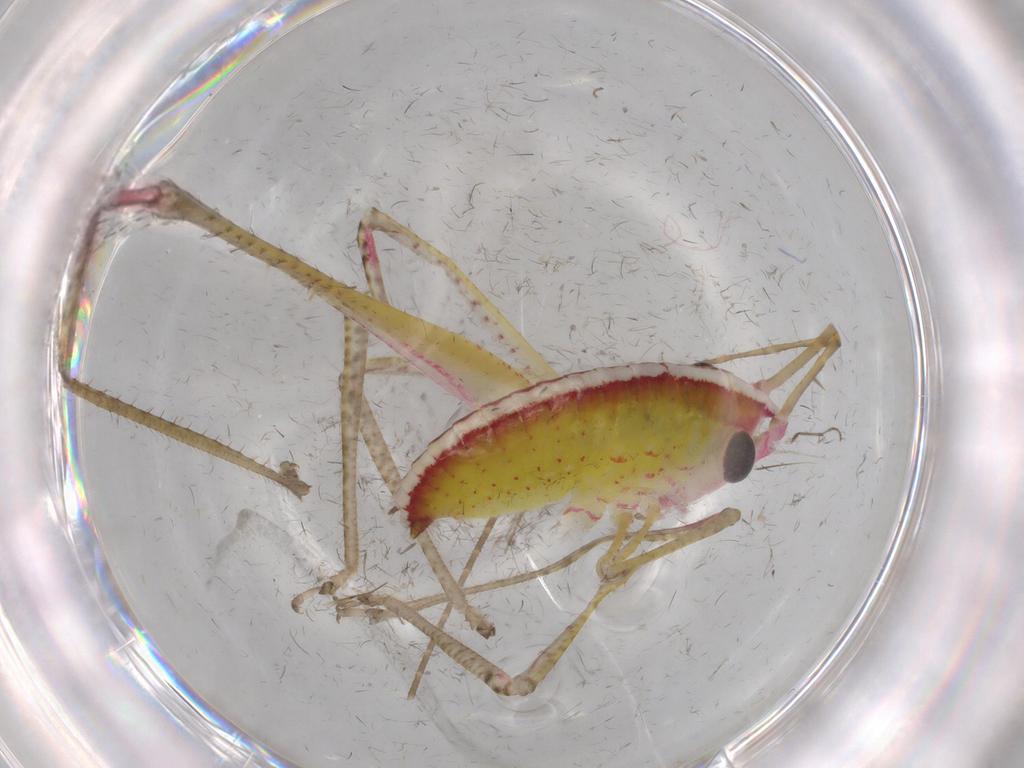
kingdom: Animalia
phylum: Arthropoda
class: Insecta
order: Orthoptera
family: Tettigoniidae
